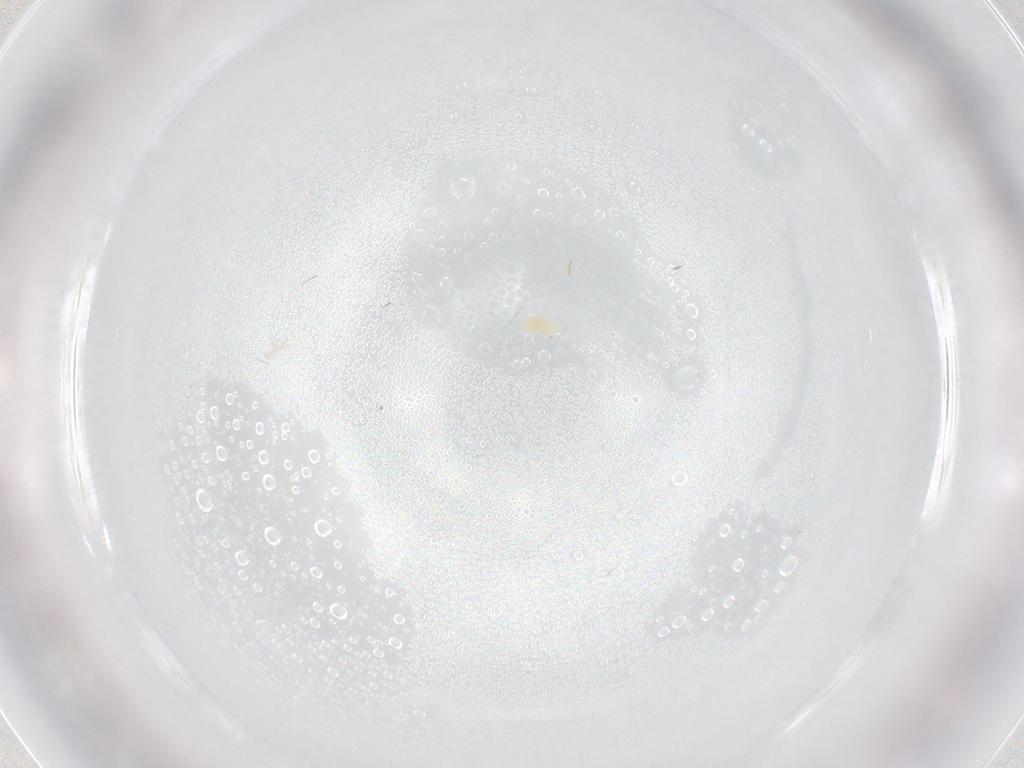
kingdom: Animalia
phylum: Arthropoda
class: Arachnida
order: Trombidiformes
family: Tetranychidae
